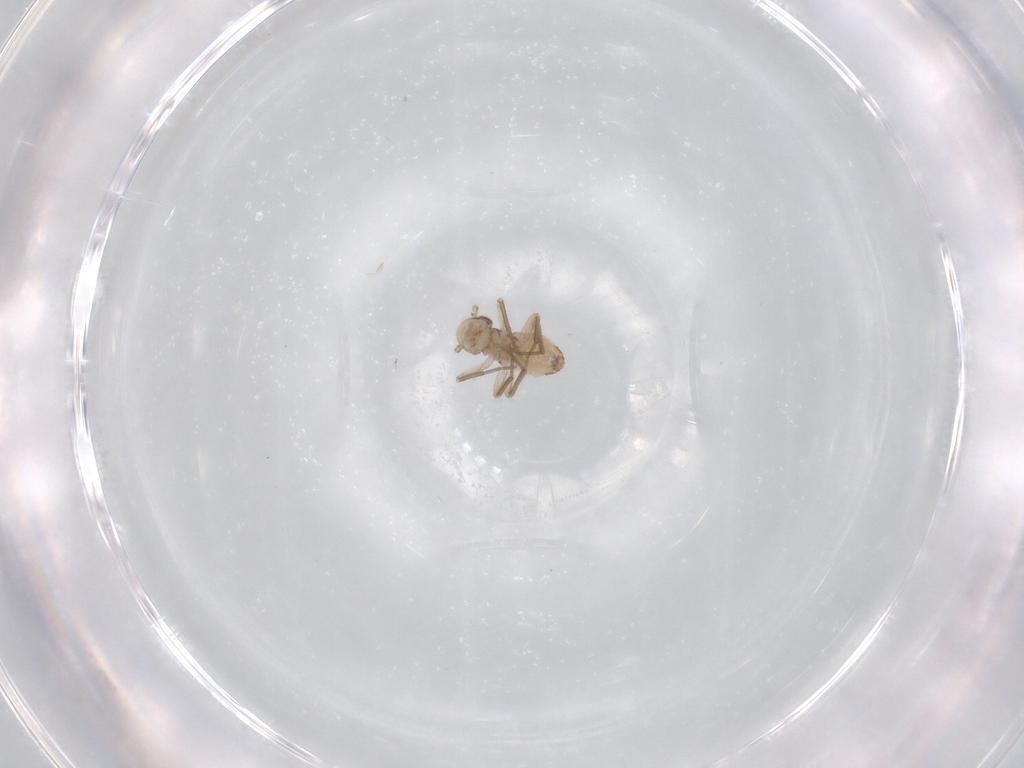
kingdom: Animalia
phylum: Arthropoda
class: Insecta
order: Psocodea
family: Mesopsocidae
